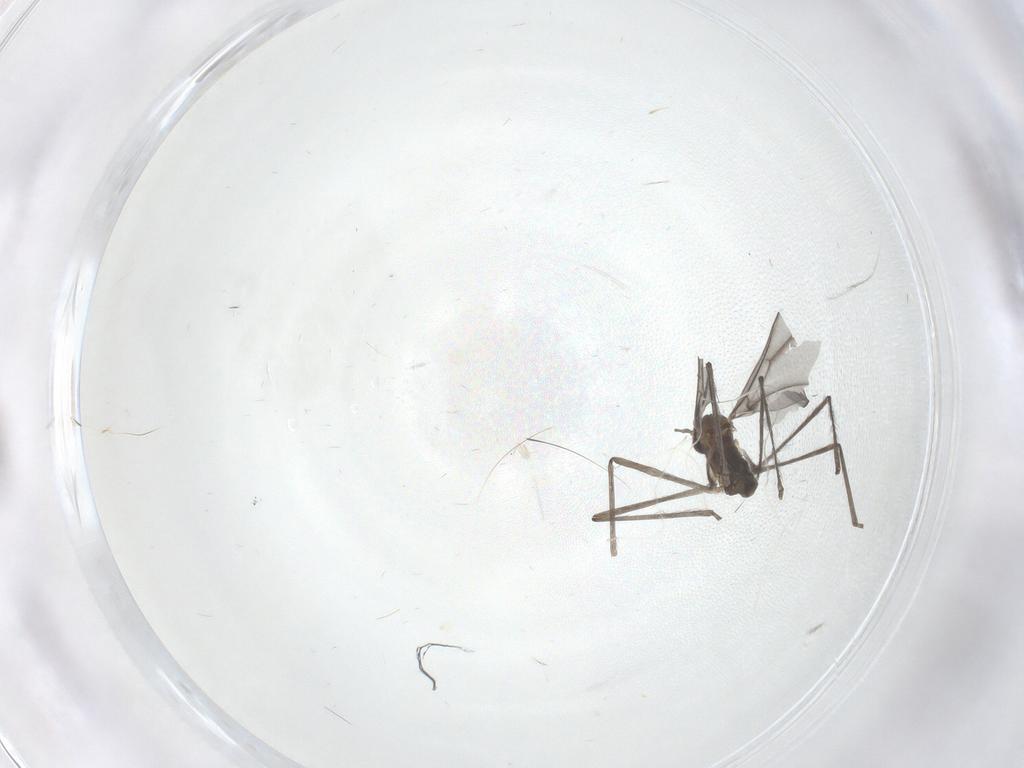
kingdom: Animalia
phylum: Arthropoda
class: Insecta
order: Diptera
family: Cecidomyiidae
